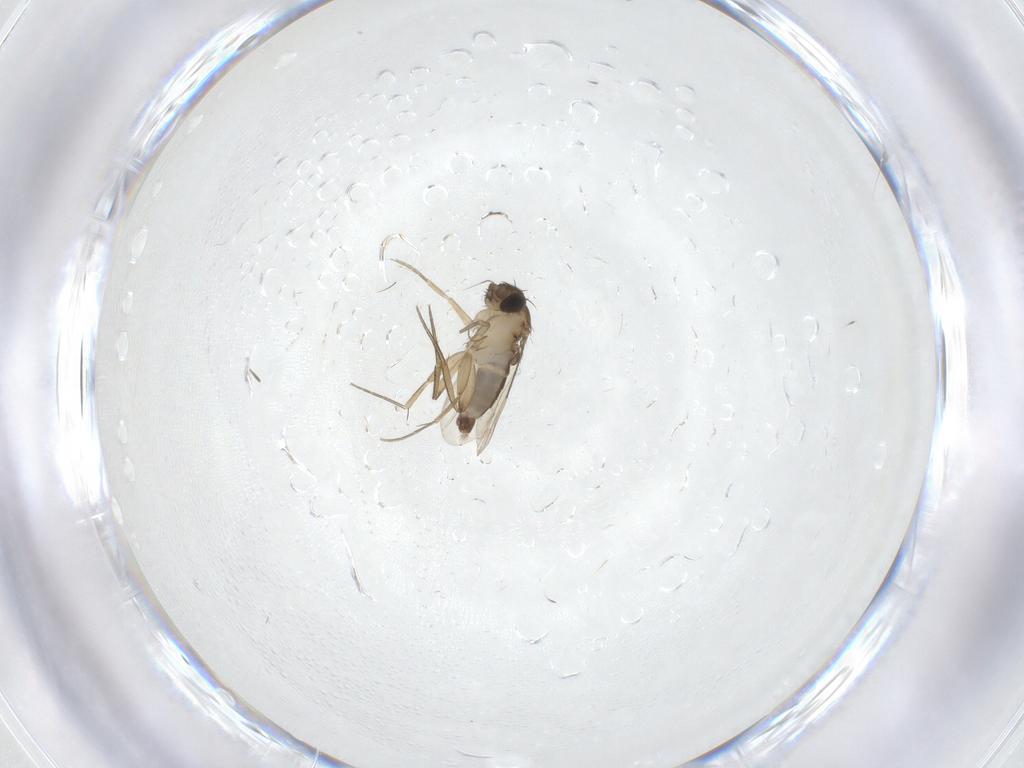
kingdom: Animalia
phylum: Arthropoda
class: Insecta
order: Diptera
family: Phoridae
